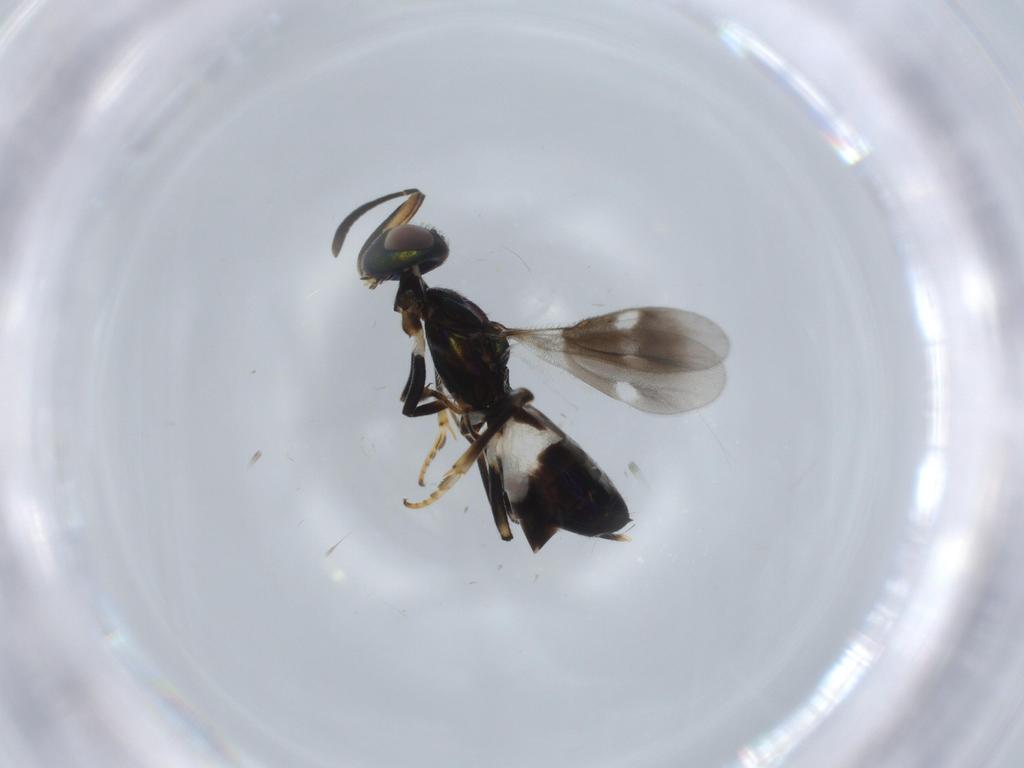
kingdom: Animalia
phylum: Arthropoda
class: Insecta
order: Hymenoptera
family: Eupelmidae
